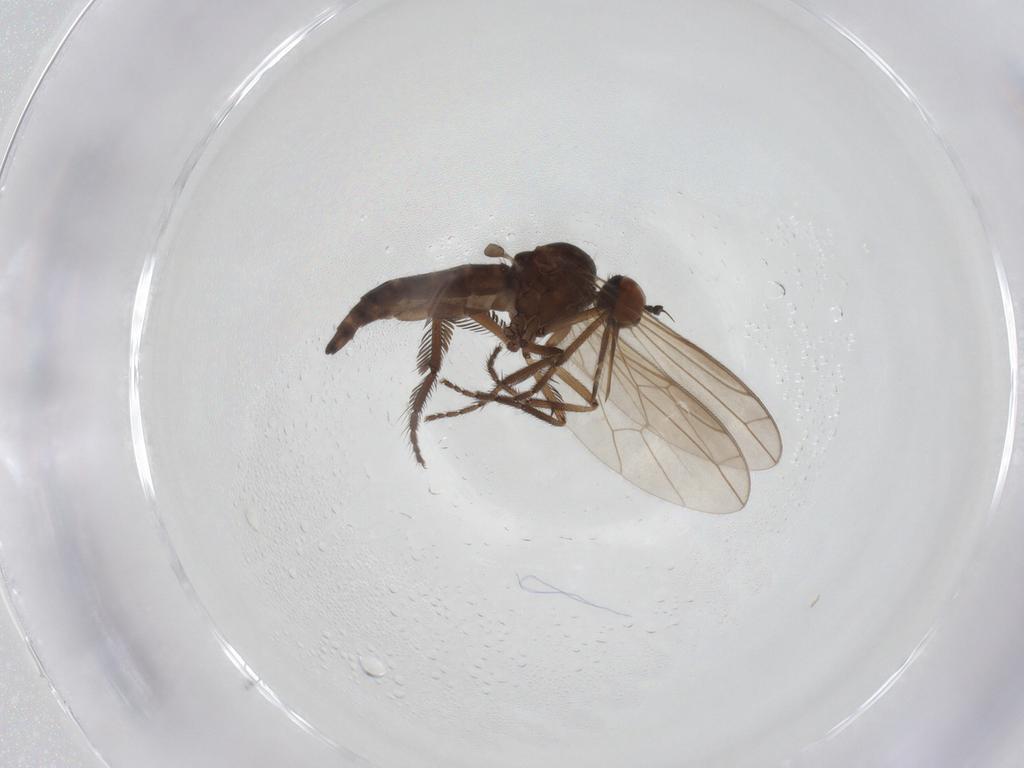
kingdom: Animalia
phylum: Arthropoda
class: Insecta
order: Diptera
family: Empididae
